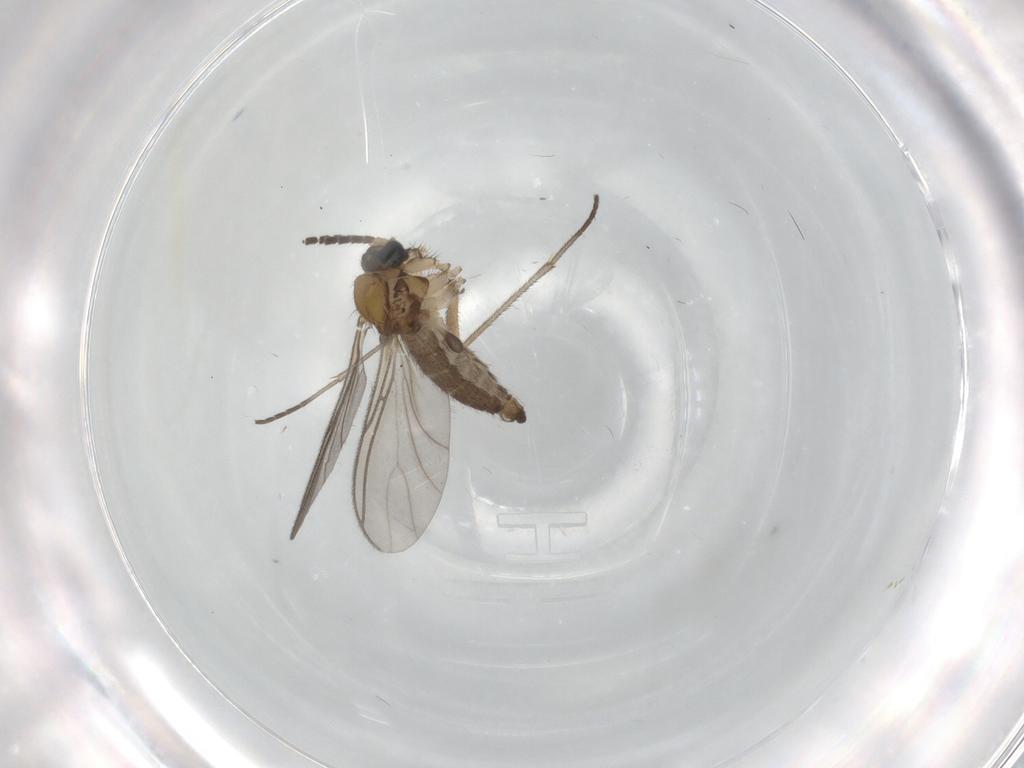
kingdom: Animalia
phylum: Arthropoda
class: Insecta
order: Diptera
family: Sciaridae
